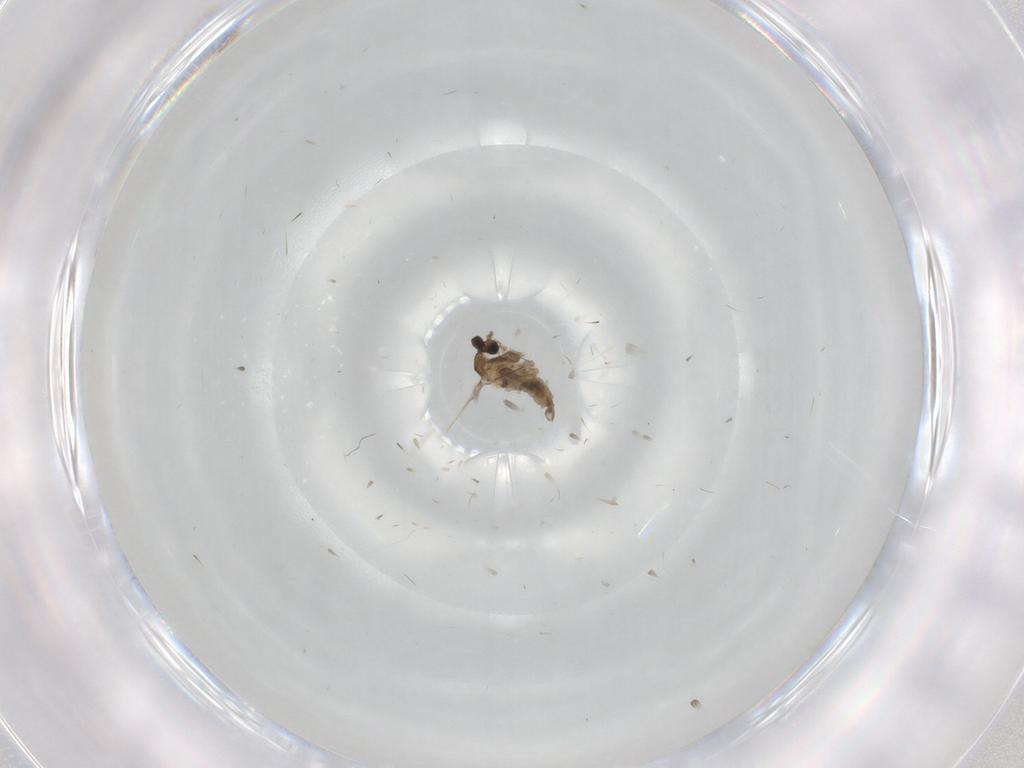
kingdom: Animalia
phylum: Arthropoda
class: Insecta
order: Diptera
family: Cecidomyiidae
